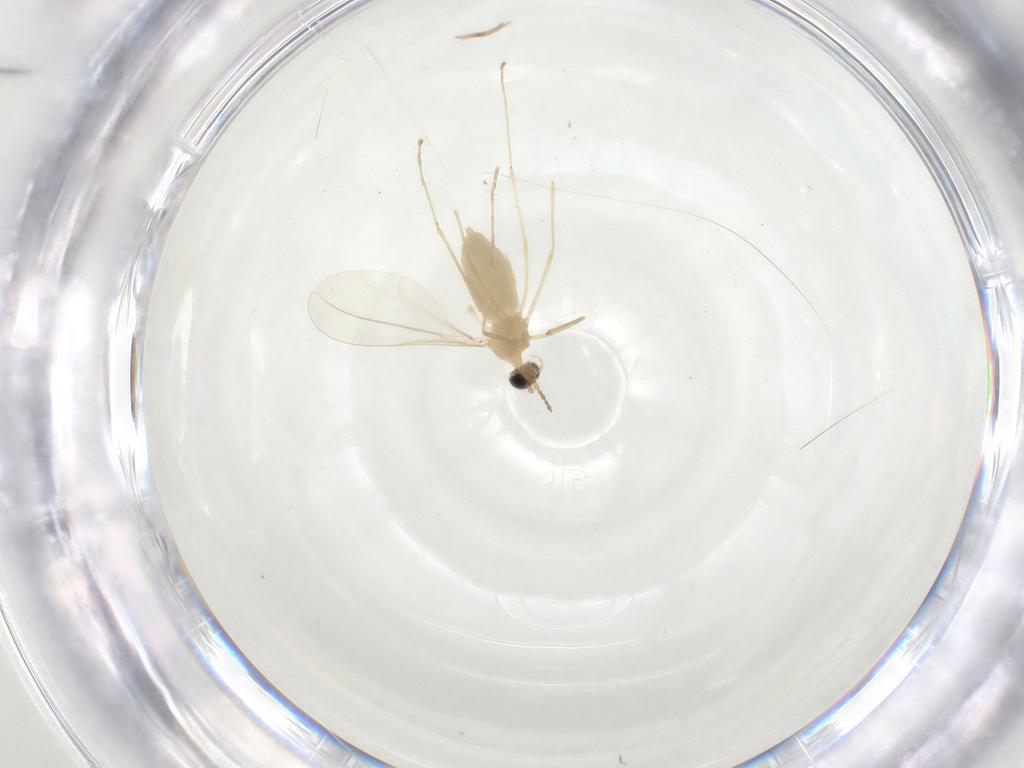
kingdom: Animalia
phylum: Arthropoda
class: Insecta
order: Diptera
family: Cecidomyiidae
